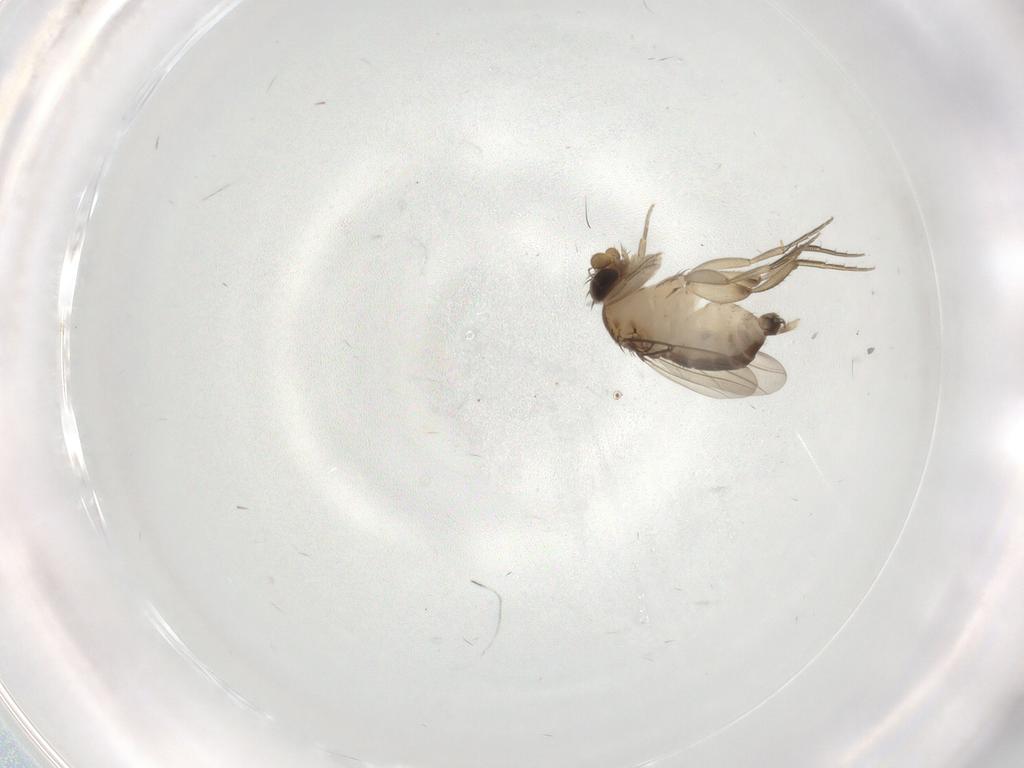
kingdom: Animalia
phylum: Arthropoda
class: Insecta
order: Diptera
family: Phoridae
